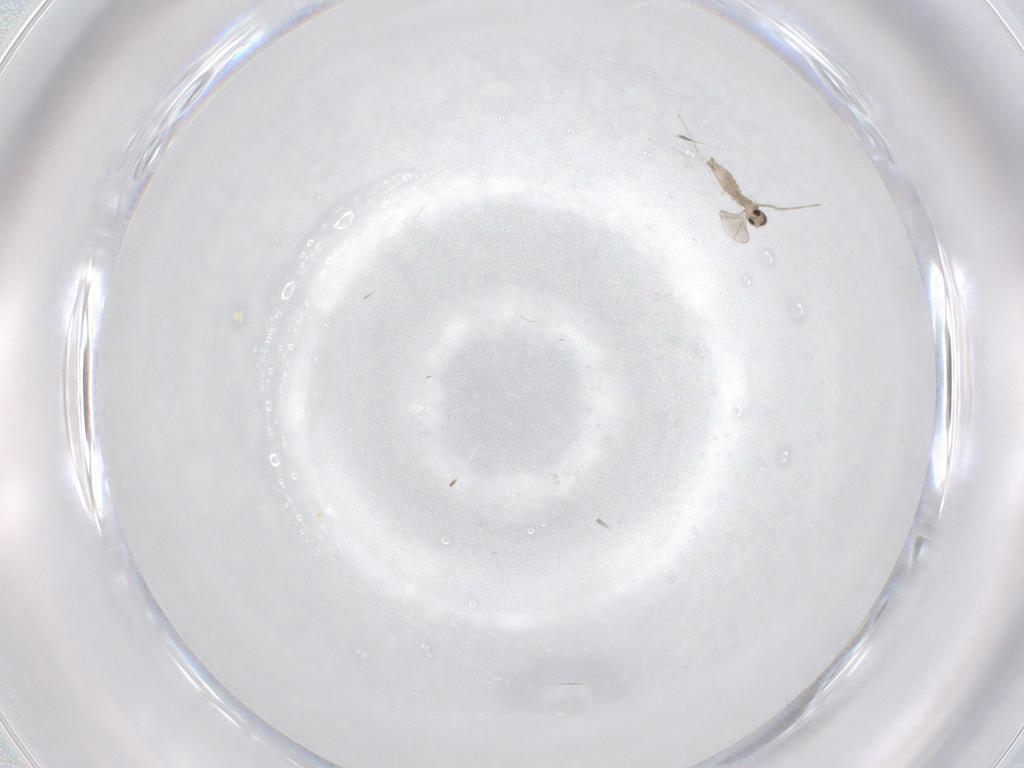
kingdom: Animalia
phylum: Arthropoda
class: Insecta
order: Diptera
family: Cecidomyiidae
